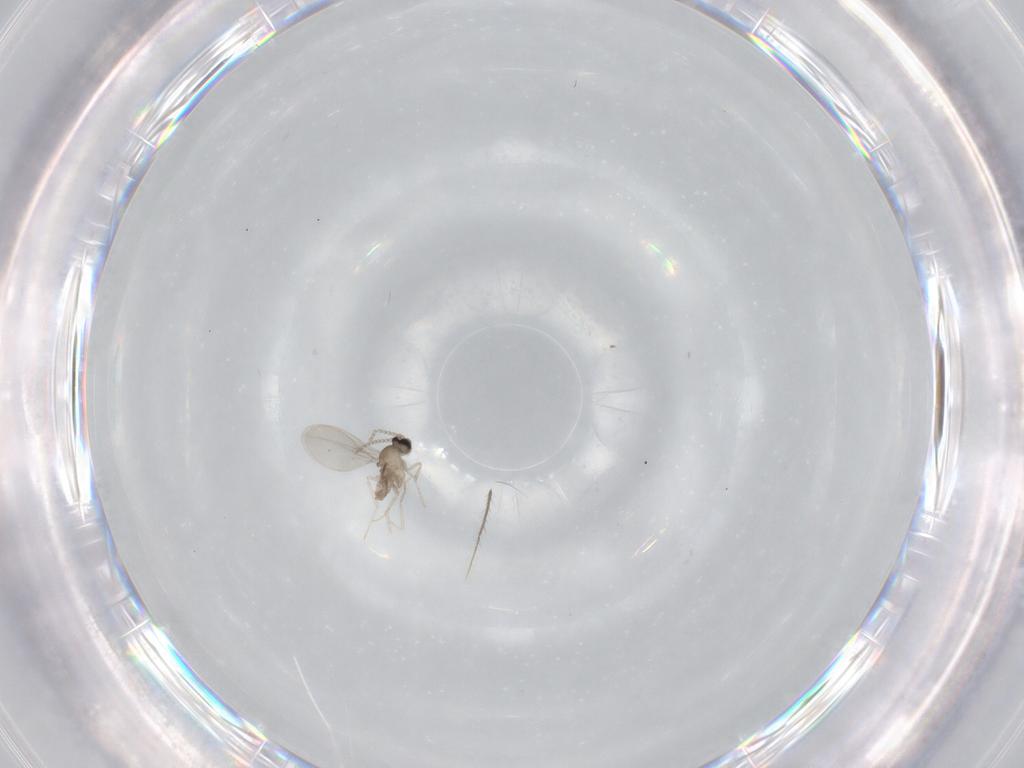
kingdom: Animalia
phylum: Arthropoda
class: Insecta
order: Diptera
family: Cecidomyiidae
